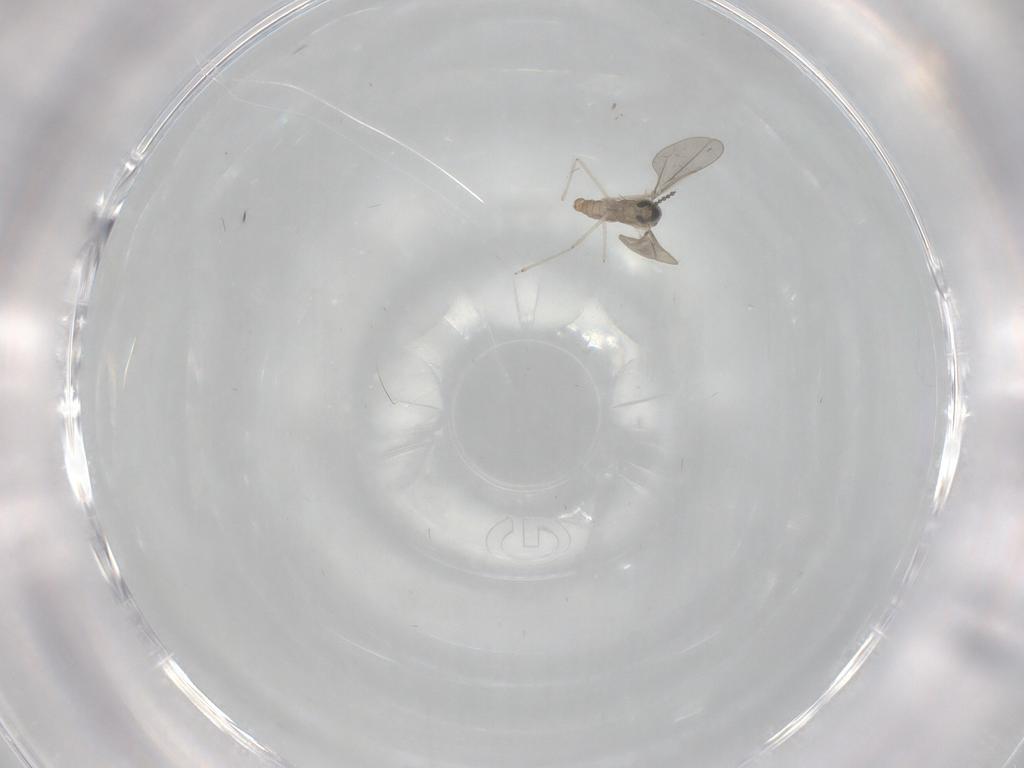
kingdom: Animalia
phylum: Arthropoda
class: Insecta
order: Diptera
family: Cecidomyiidae
